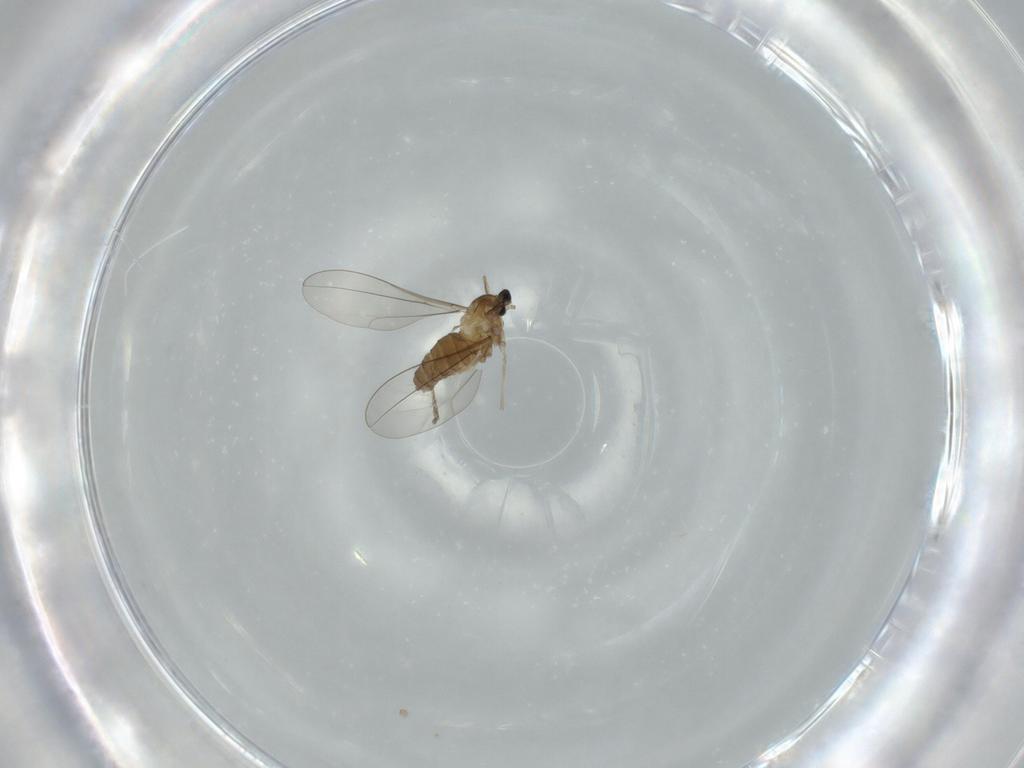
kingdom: Animalia
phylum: Arthropoda
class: Insecta
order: Diptera
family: Cecidomyiidae
